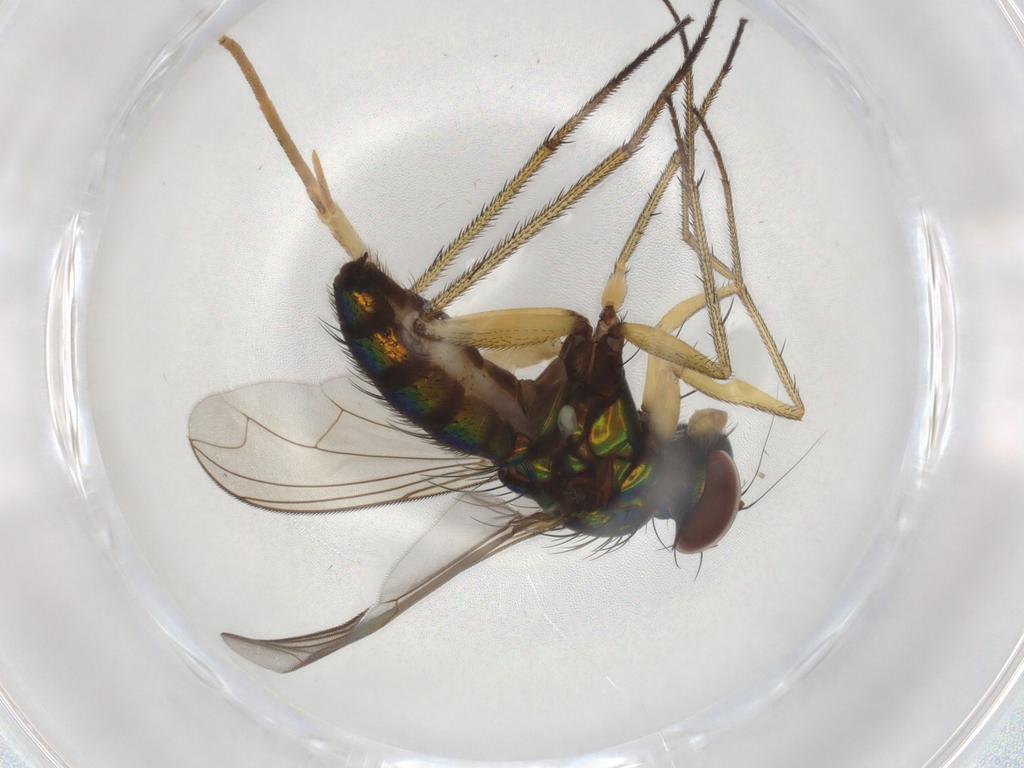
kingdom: Animalia
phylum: Arthropoda
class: Insecta
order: Diptera
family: Dolichopodidae
